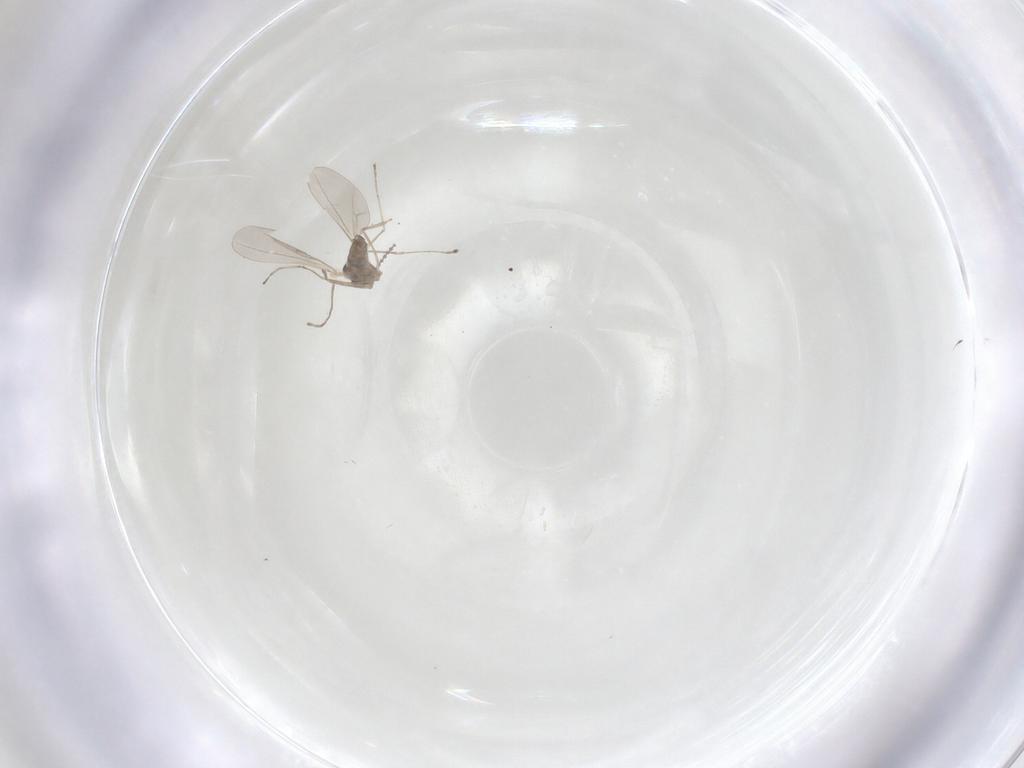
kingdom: Animalia
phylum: Arthropoda
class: Insecta
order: Diptera
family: Cecidomyiidae
